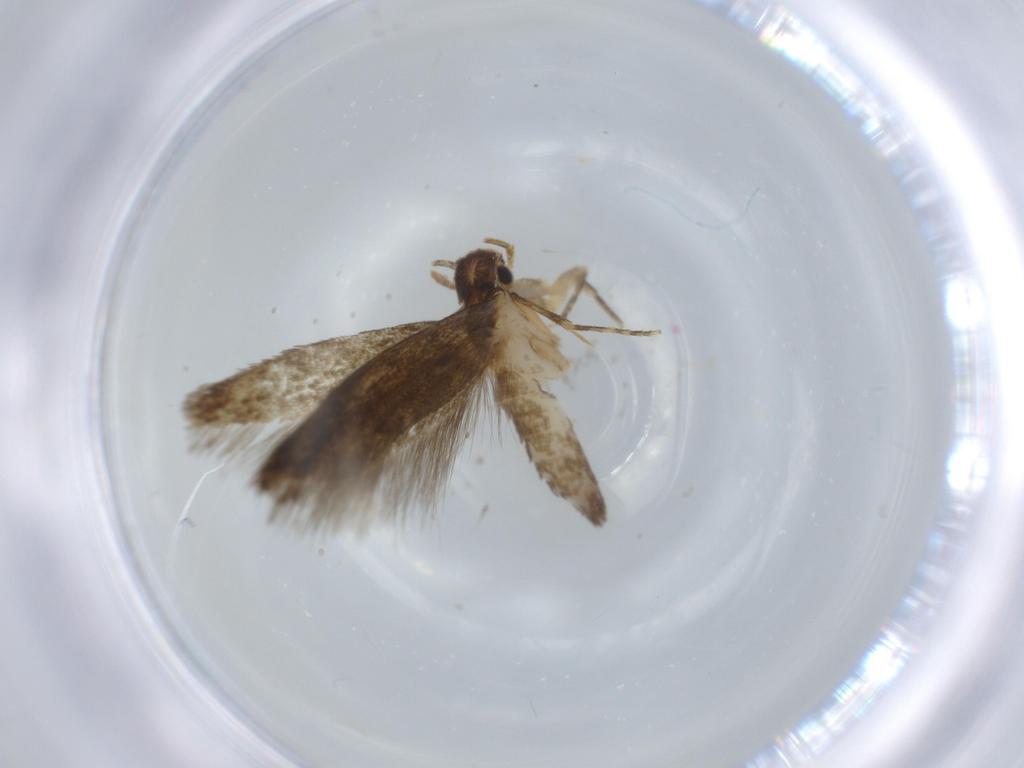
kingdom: Animalia
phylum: Arthropoda
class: Insecta
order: Lepidoptera
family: Tineidae
